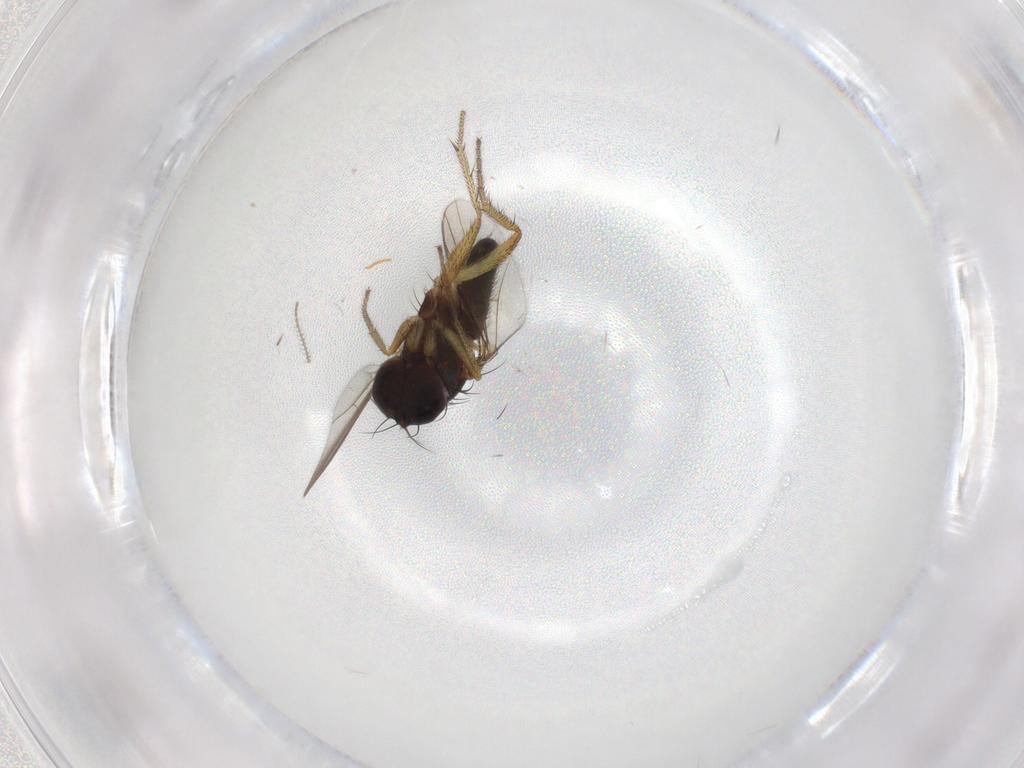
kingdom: Animalia
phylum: Arthropoda
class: Insecta
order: Diptera
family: Dolichopodidae
